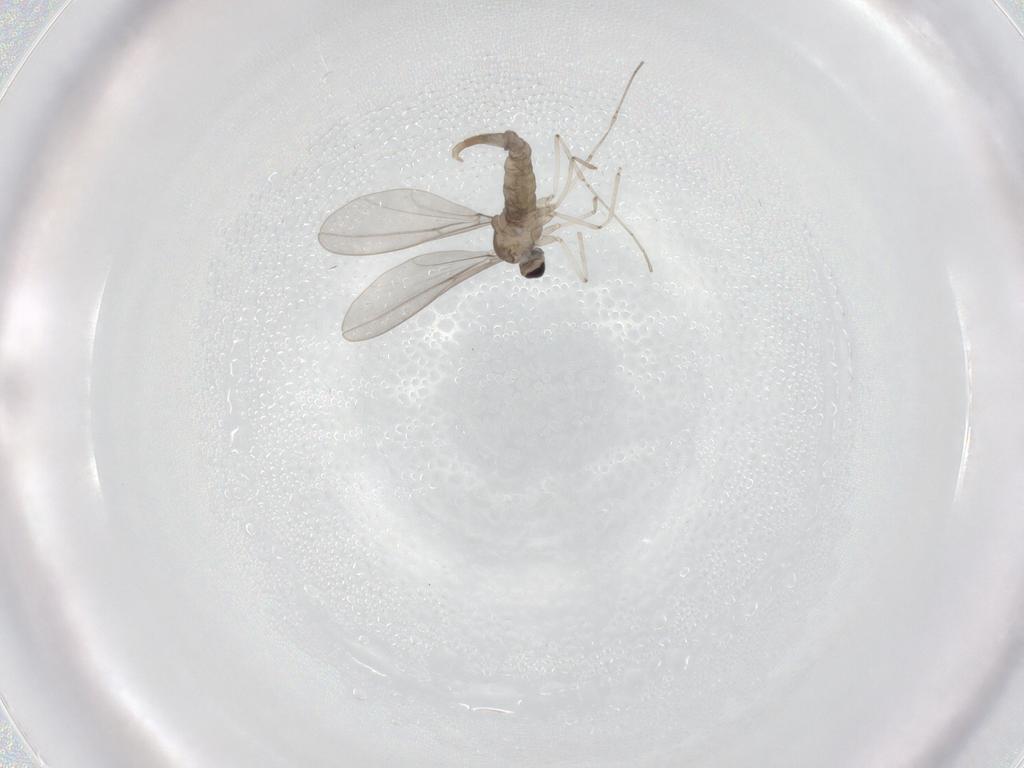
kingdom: Animalia
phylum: Arthropoda
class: Insecta
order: Diptera
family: Cecidomyiidae
